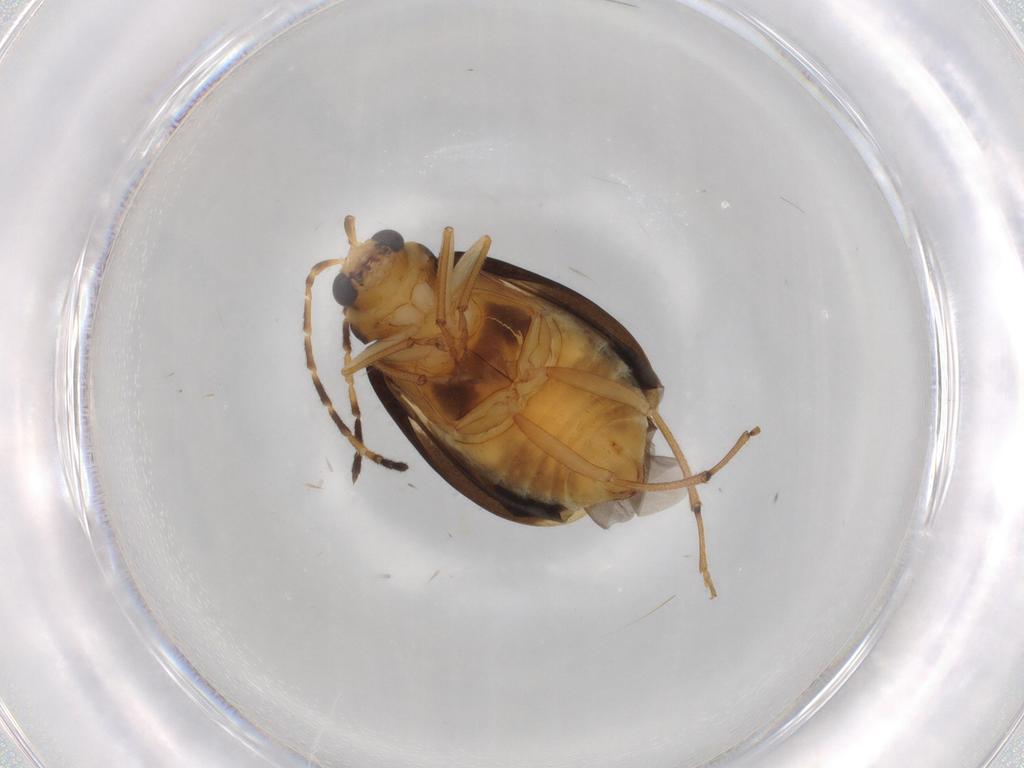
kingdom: Animalia
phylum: Arthropoda
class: Insecta
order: Coleoptera
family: Chrysomelidae
